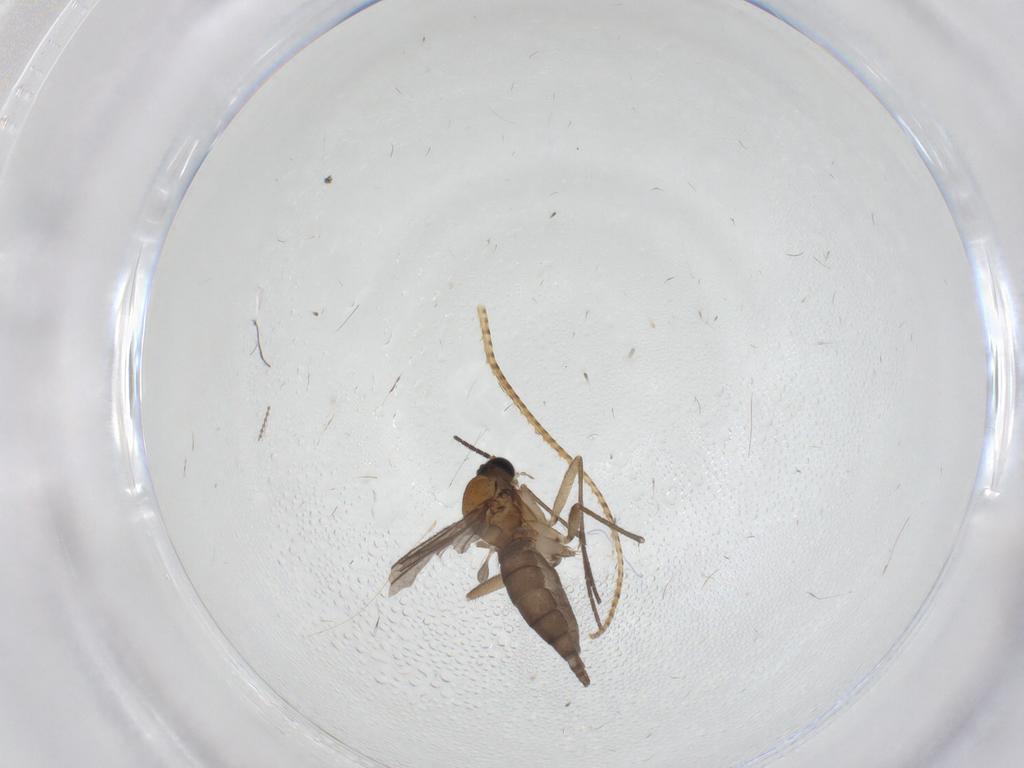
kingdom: Animalia
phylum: Arthropoda
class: Insecta
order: Diptera
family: Sciaridae
